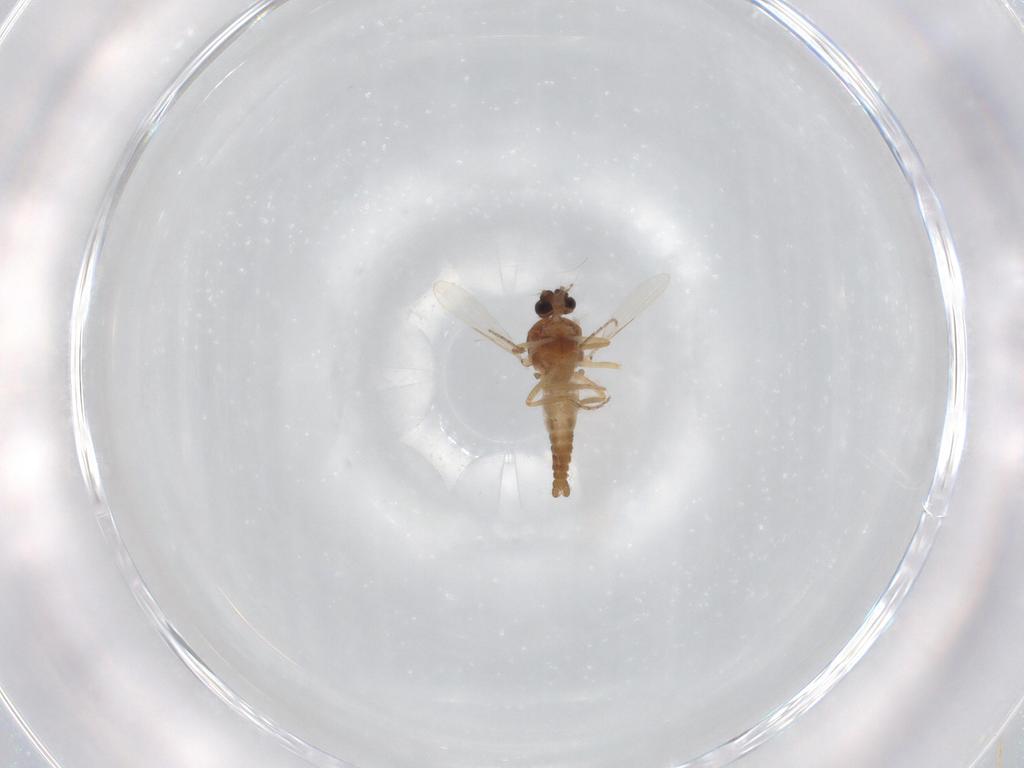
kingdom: Animalia
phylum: Arthropoda
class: Insecta
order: Diptera
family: Ceratopogonidae
